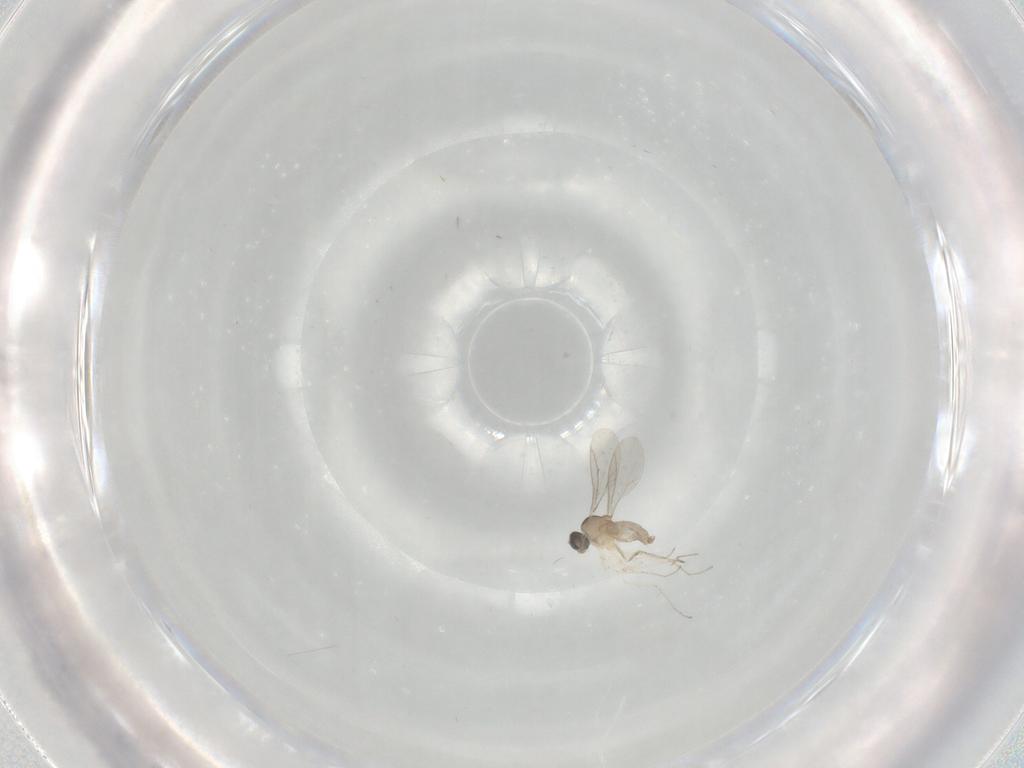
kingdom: Animalia
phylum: Arthropoda
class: Insecta
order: Diptera
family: Cecidomyiidae
